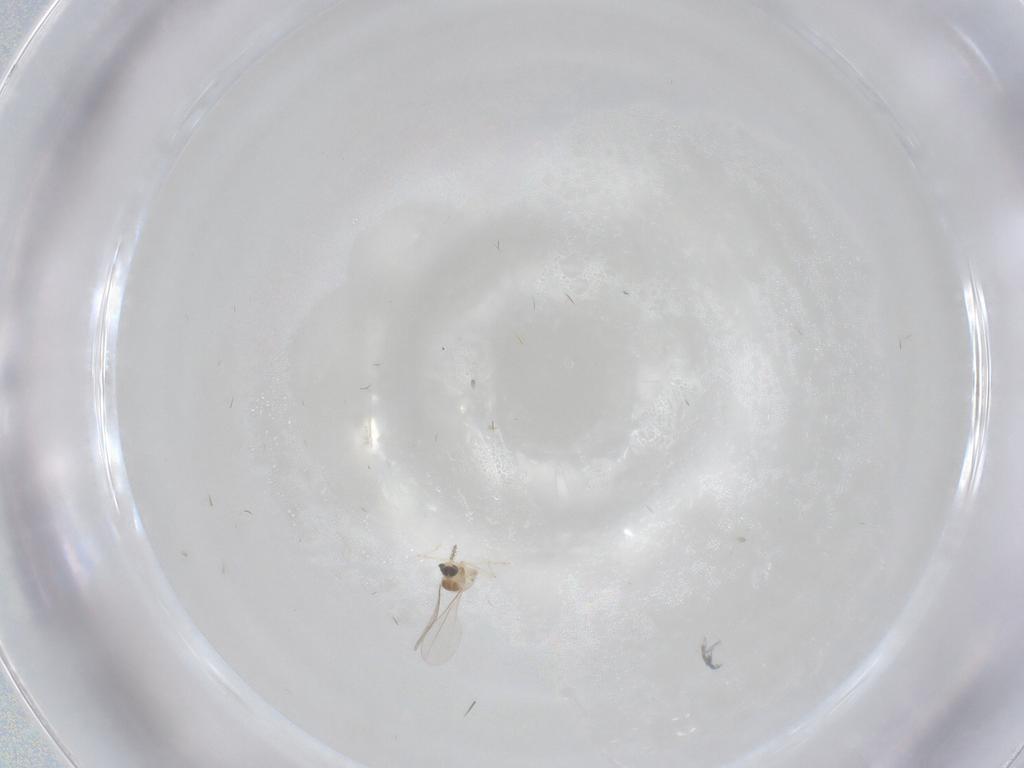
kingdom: Animalia
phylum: Arthropoda
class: Insecta
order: Diptera
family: Cecidomyiidae
